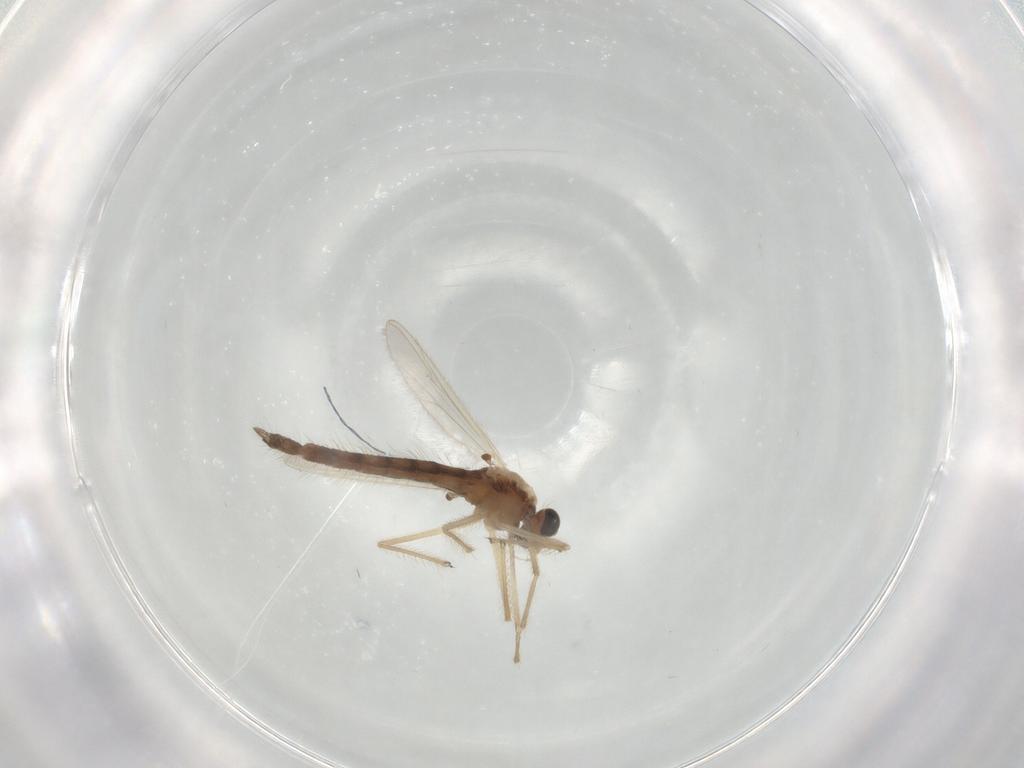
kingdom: Animalia
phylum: Arthropoda
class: Insecta
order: Diptera
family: Chironomidae
